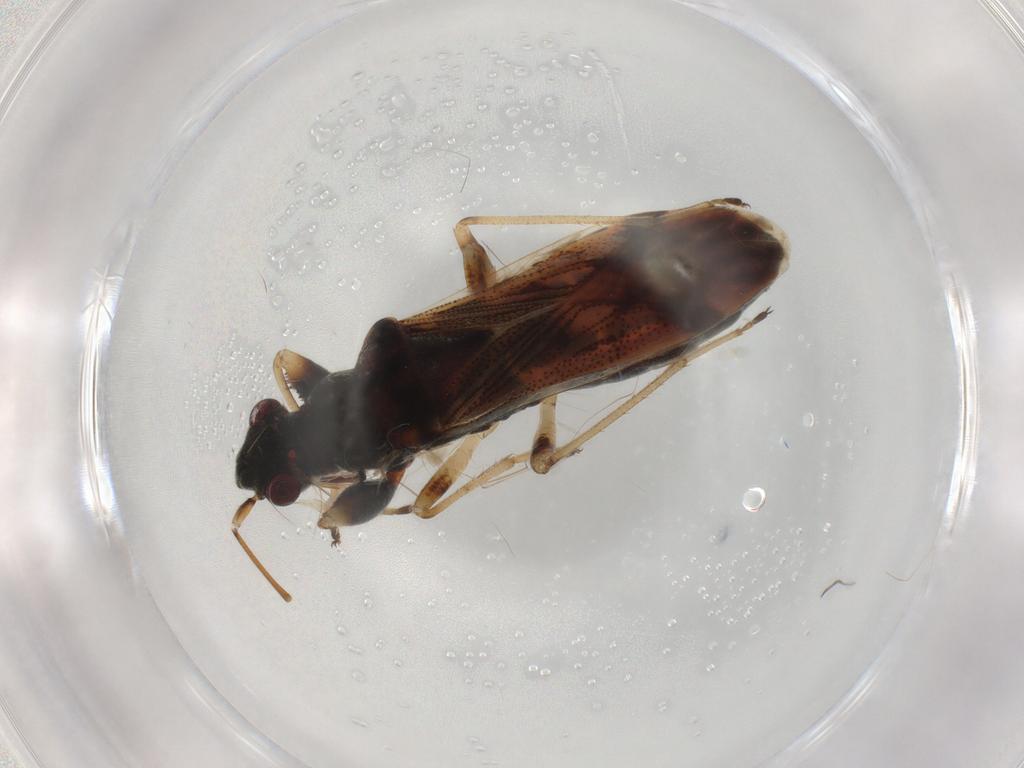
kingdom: Animalia
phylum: Arthropoda
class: Insecta
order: Hemiptera
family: Rhyparochromidae
